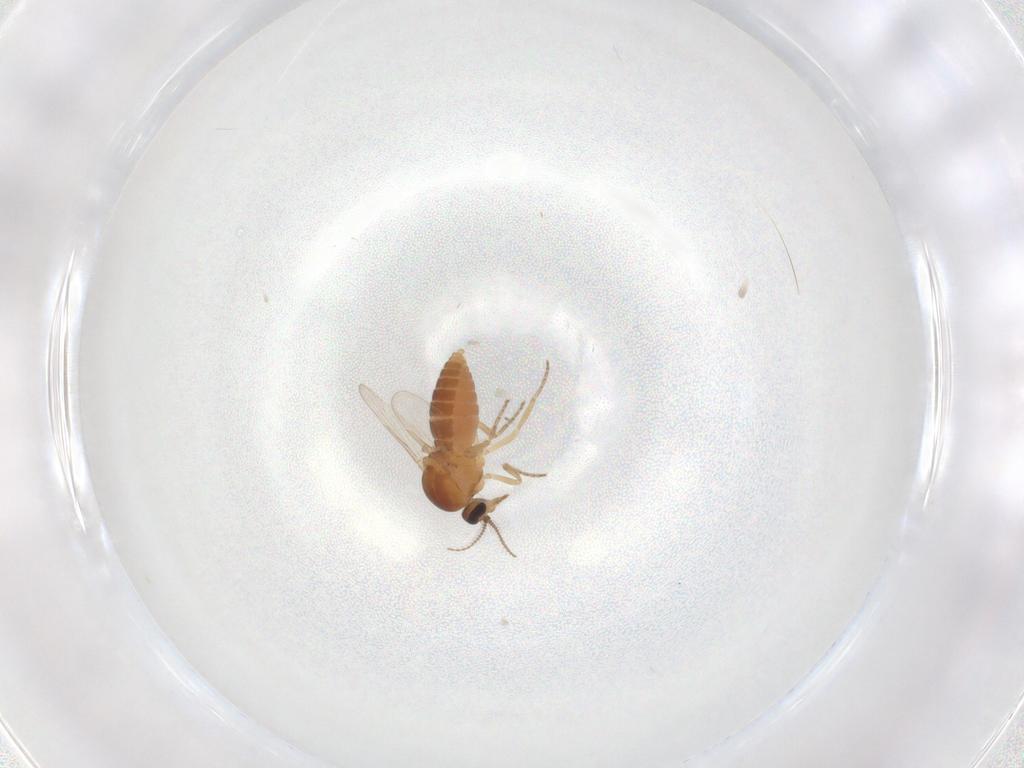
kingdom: Animalia
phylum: Arthropoda
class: Insecta
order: Diptera
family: Ceratopogonidae
